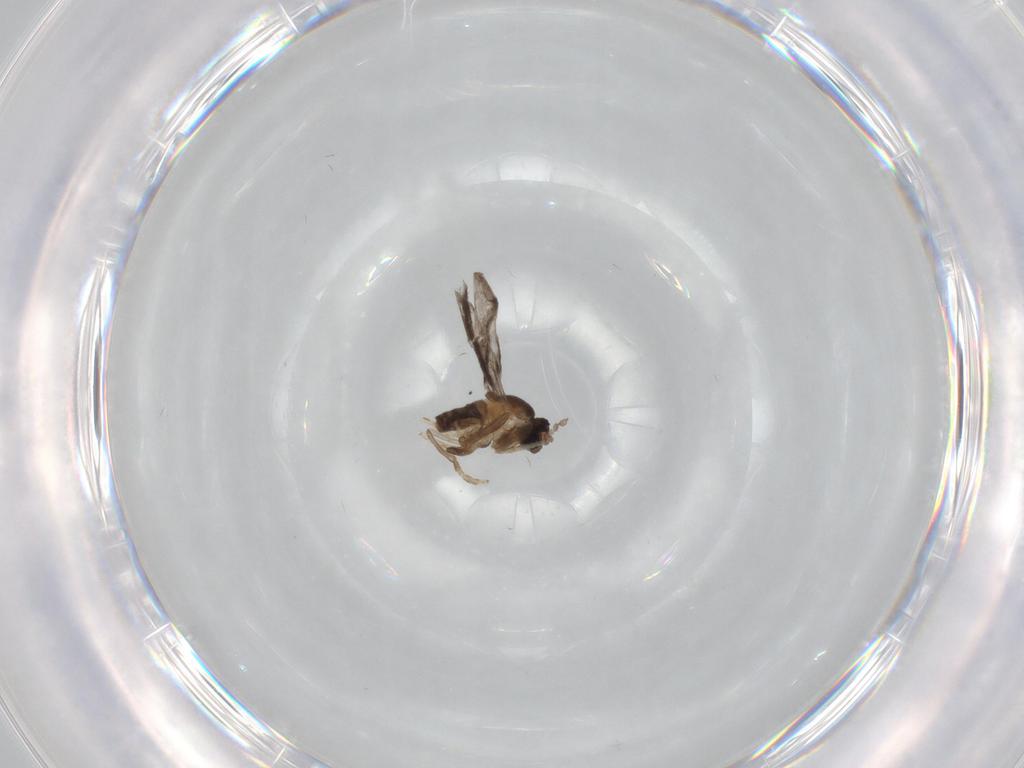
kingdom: Animalia
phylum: Arthropoda
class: Insecta
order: Diptera
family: Cecidomyiidae
